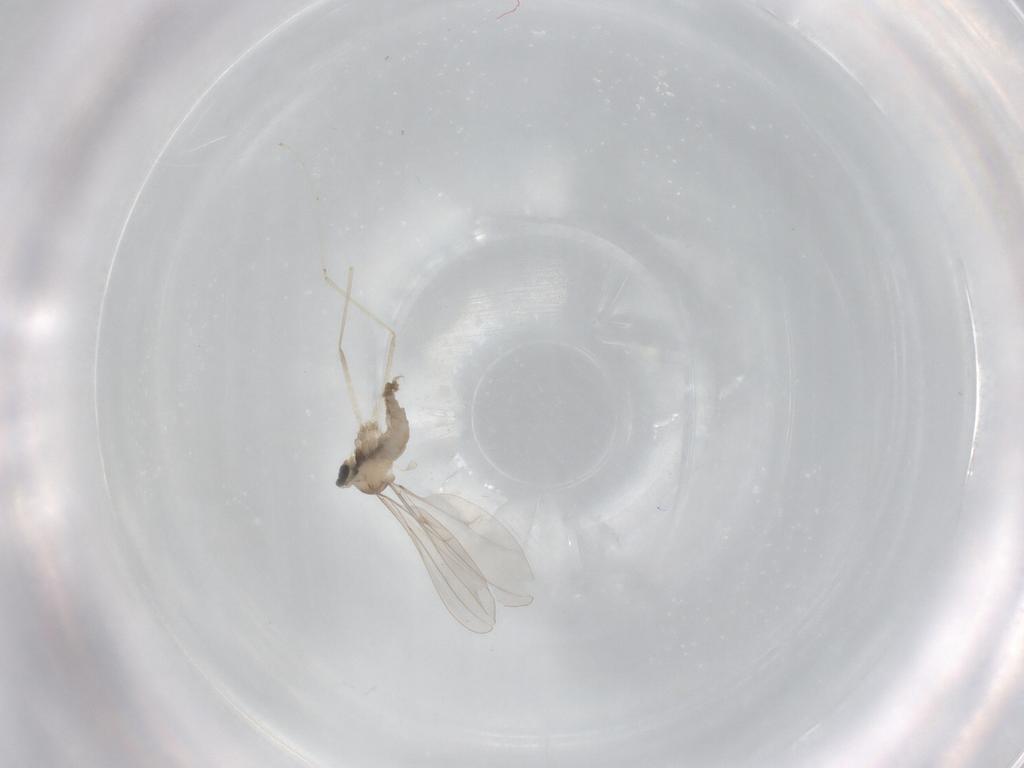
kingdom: Animalia
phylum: Arthropoda
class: Insecta
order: Diptera
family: Cecidomyiidae
